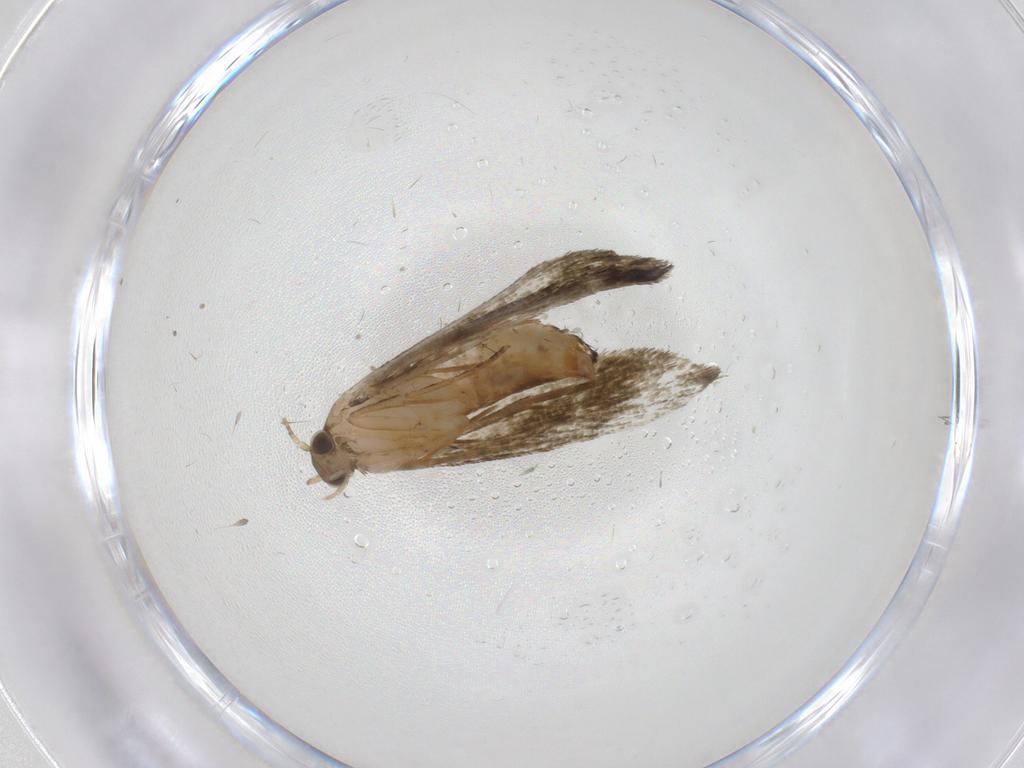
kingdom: Animalia
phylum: Arthropoda
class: Insecta
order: Lepidoptera
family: Crambidae
